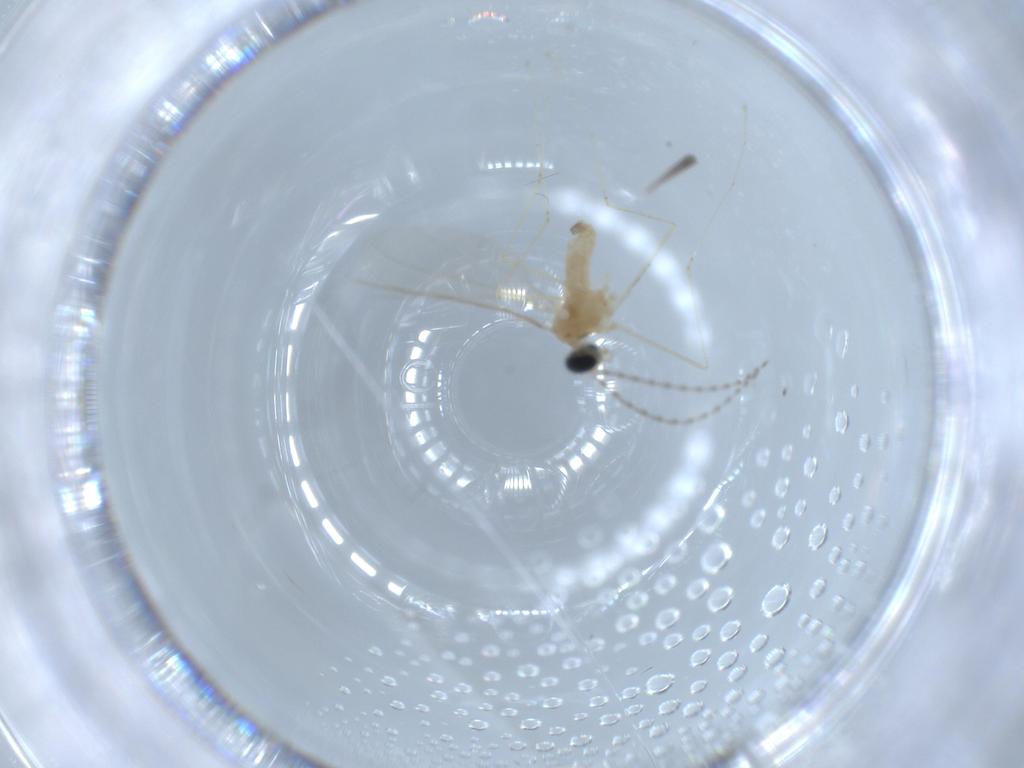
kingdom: Animalia
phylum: Arthropoda
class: Insecta
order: Diptera
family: Cecidomyiidae
